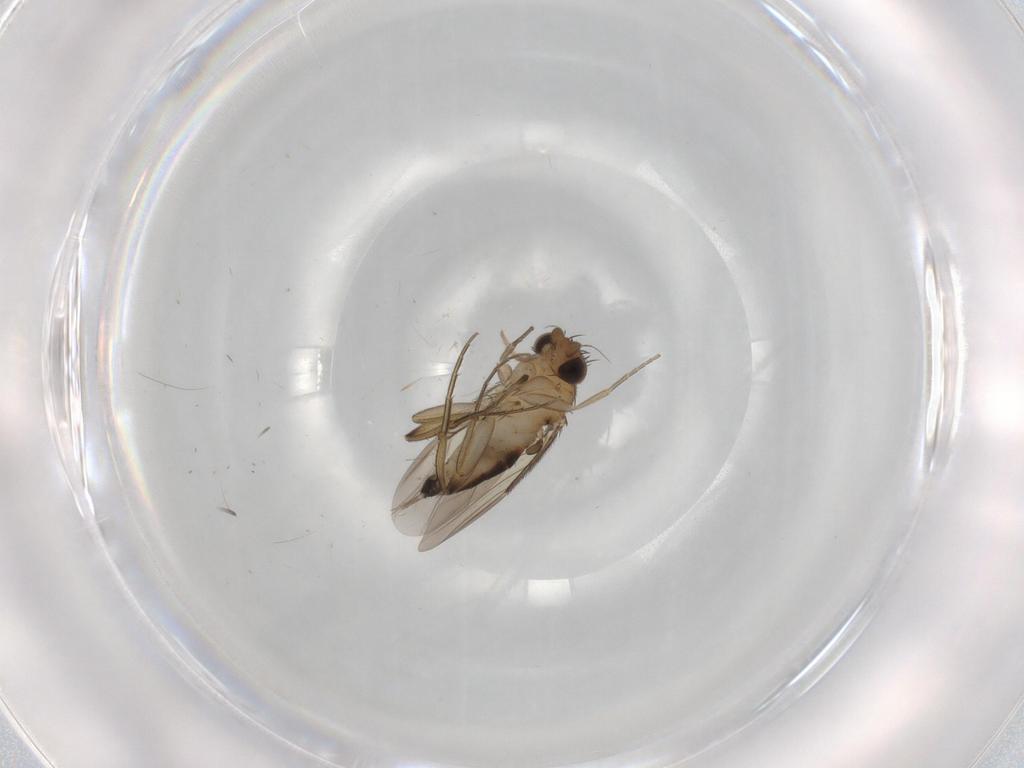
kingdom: Animalia
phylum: Arthropoda
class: Insecta
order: Diptera
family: Phoridae
